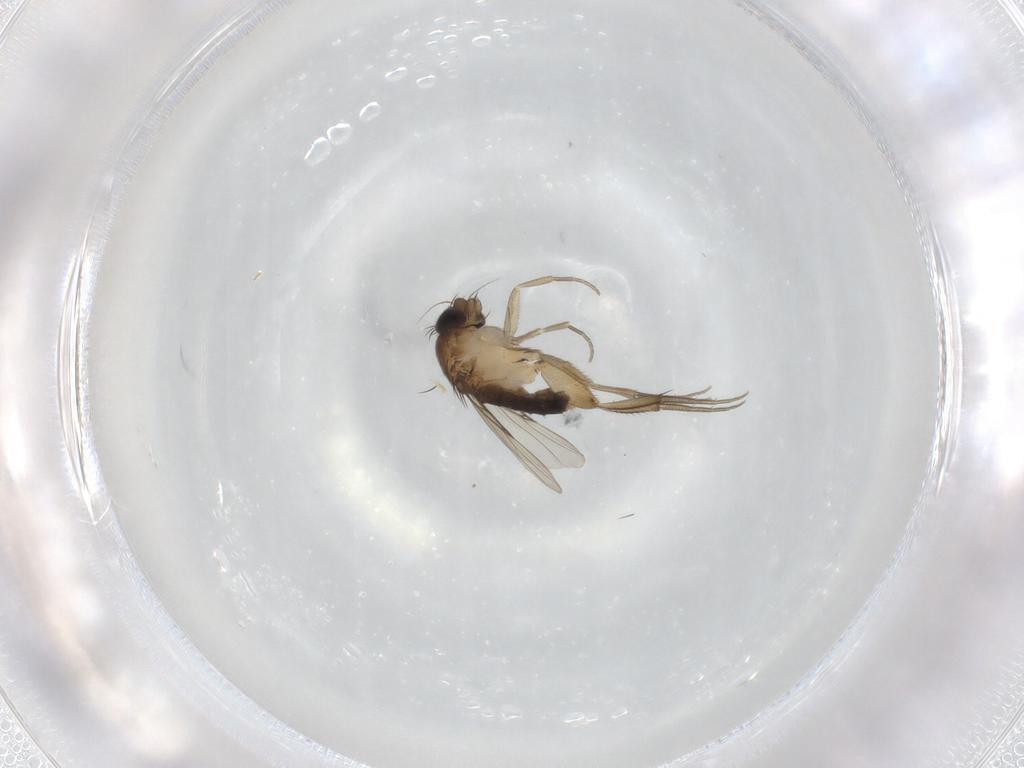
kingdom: Animalia
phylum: Arthropoda
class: Insecta
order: Diptera
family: Phoridae
